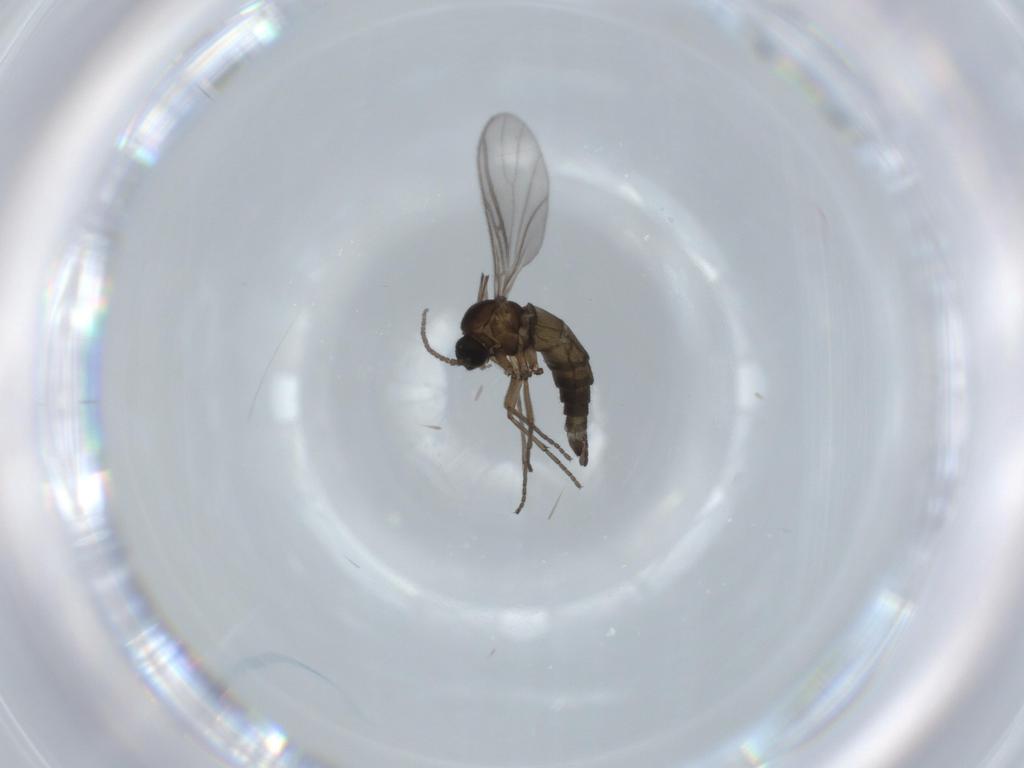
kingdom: Animalia
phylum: Arthropoda
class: Insecta
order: Diptera
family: Sciaridae
